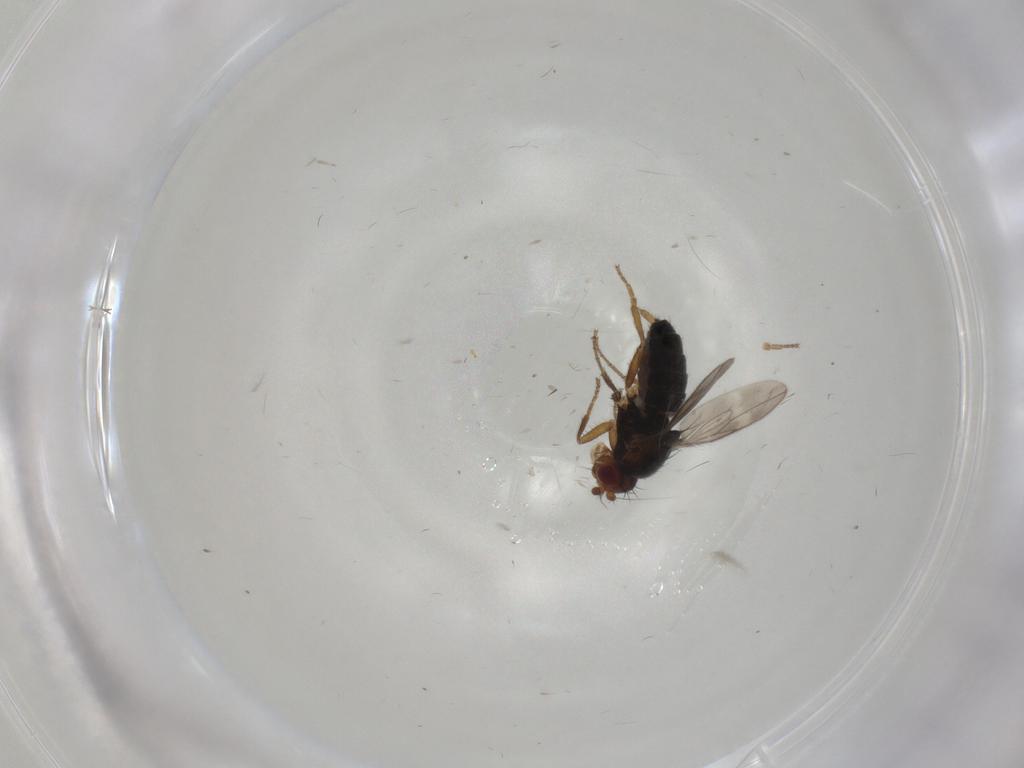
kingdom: Animalia
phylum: Arthropoda
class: Insecta
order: Diptera
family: Sphaeroceridae
